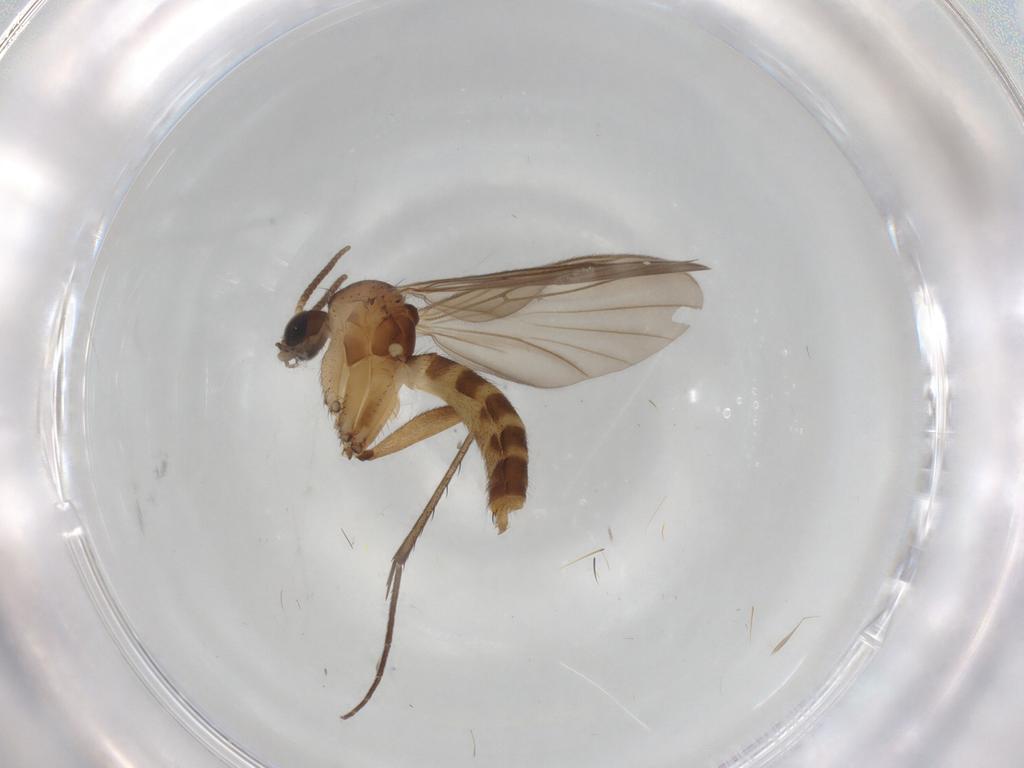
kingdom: Animalia
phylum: Arthropoda
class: Insecta
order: Diptera
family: Mycetophilidae
